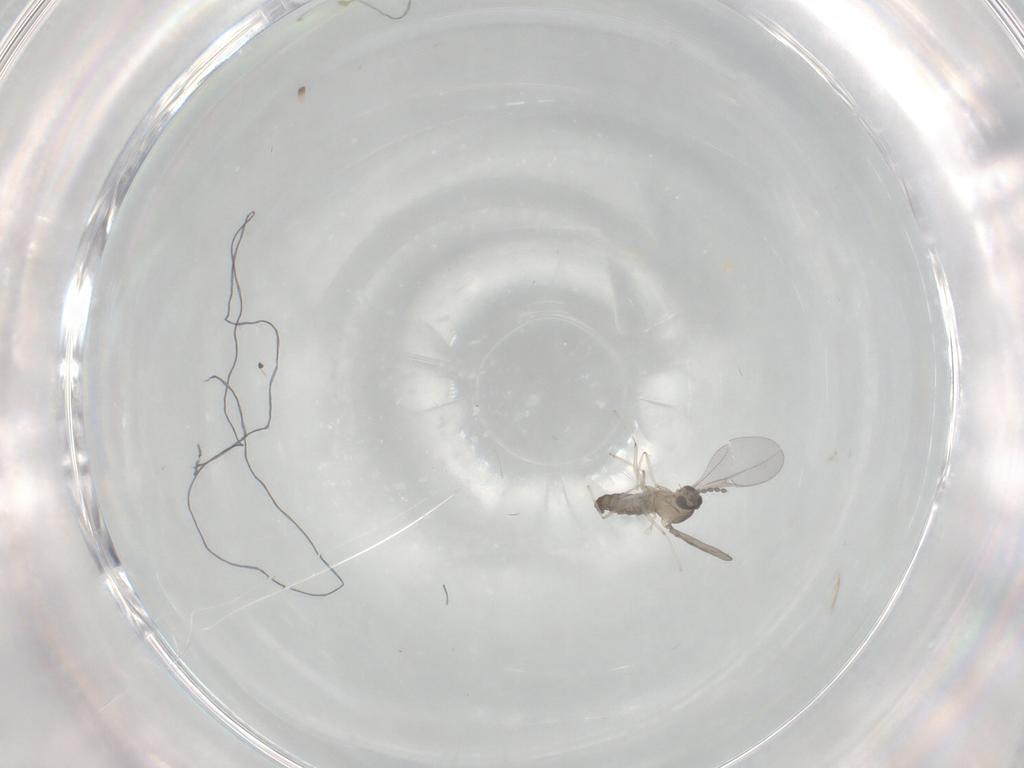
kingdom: Animalia
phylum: Arthropoda
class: Insecta
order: Diptera
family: Cecidomyiidae
